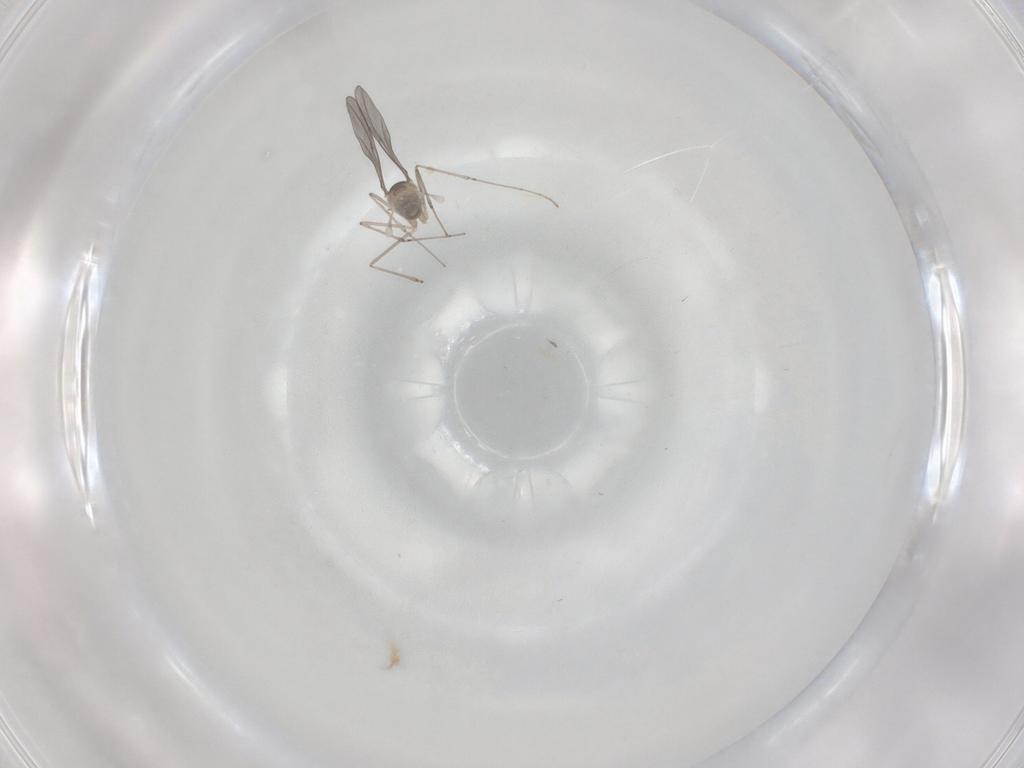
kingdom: Animalia
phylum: Arthropoda
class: Insecta
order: Diptera
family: Cecidomyiidae
